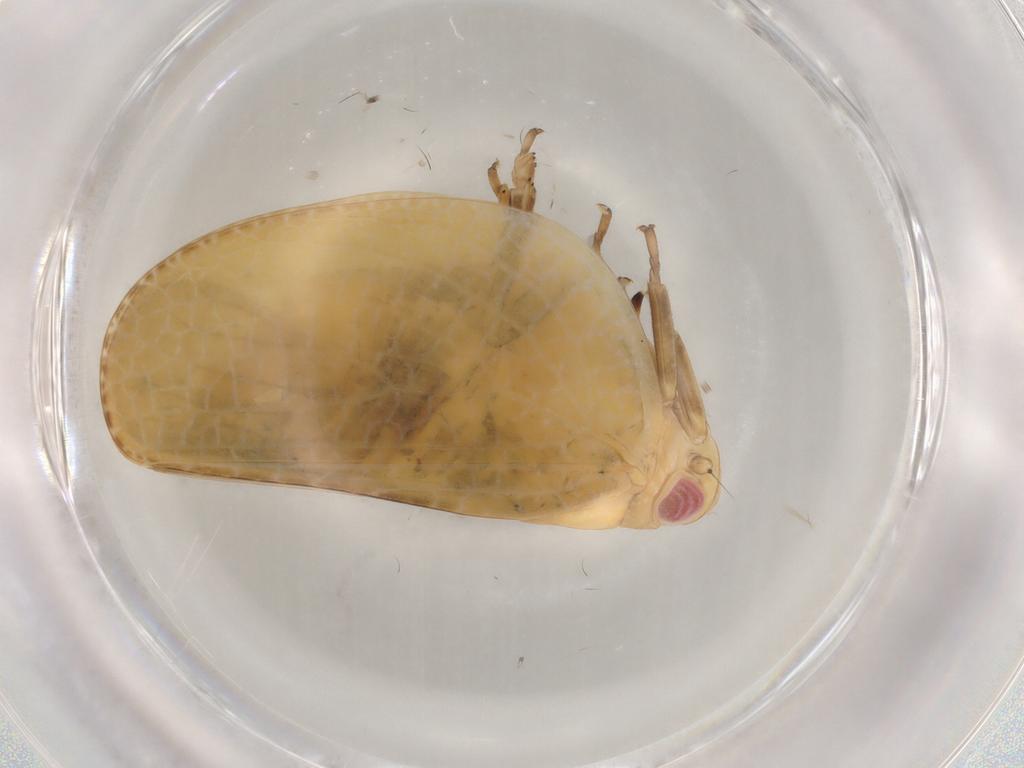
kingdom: Animalia
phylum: Arthropoda
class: Insecta
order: Hemiptera
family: Acanaloniidae
